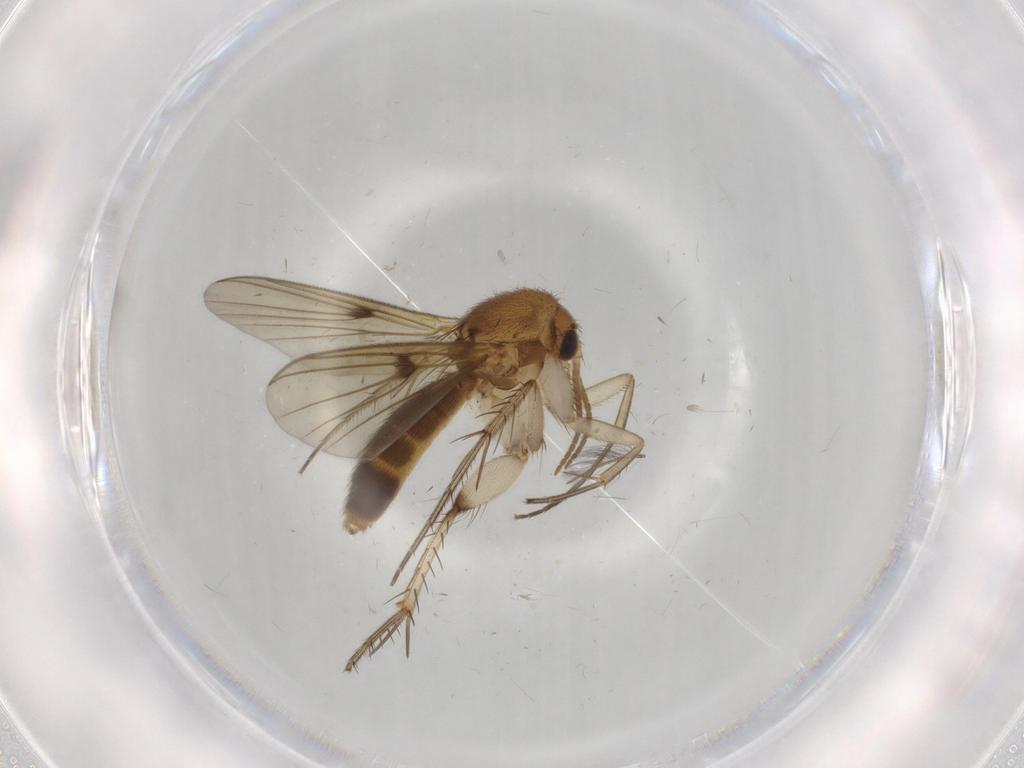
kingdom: Animalia
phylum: Arthropoda
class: Insecta
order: Diptera
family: Chironomidae
